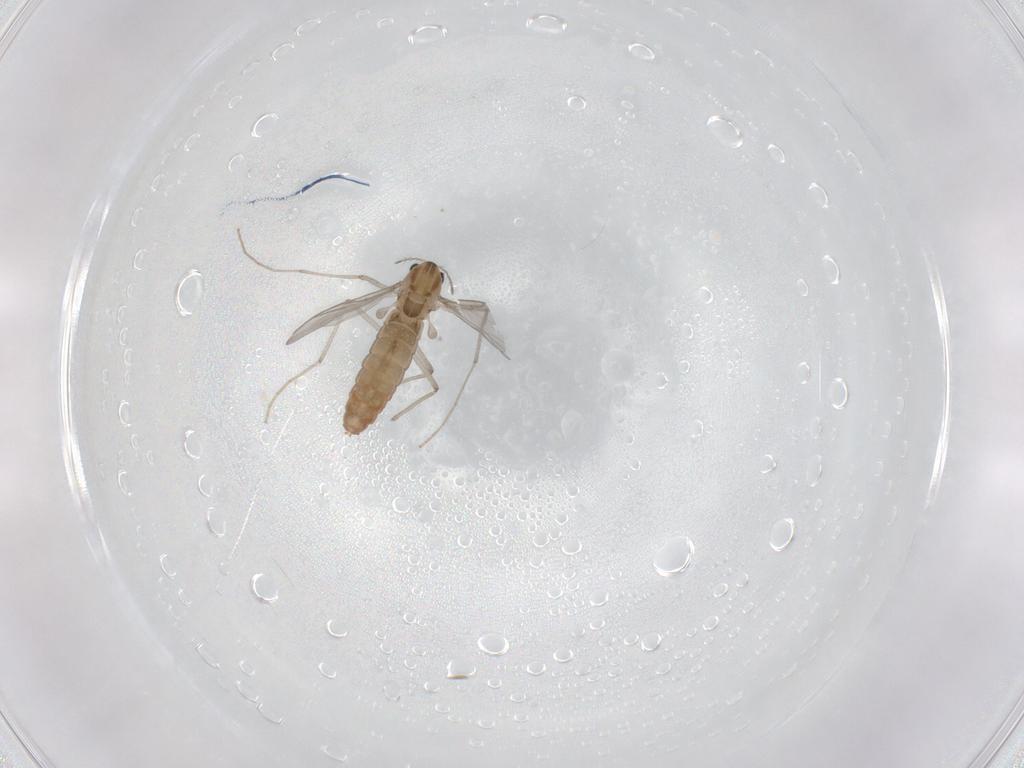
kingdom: Animalia
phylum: Arthropoda
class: Insecta
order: Diptera
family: Chironomidae
